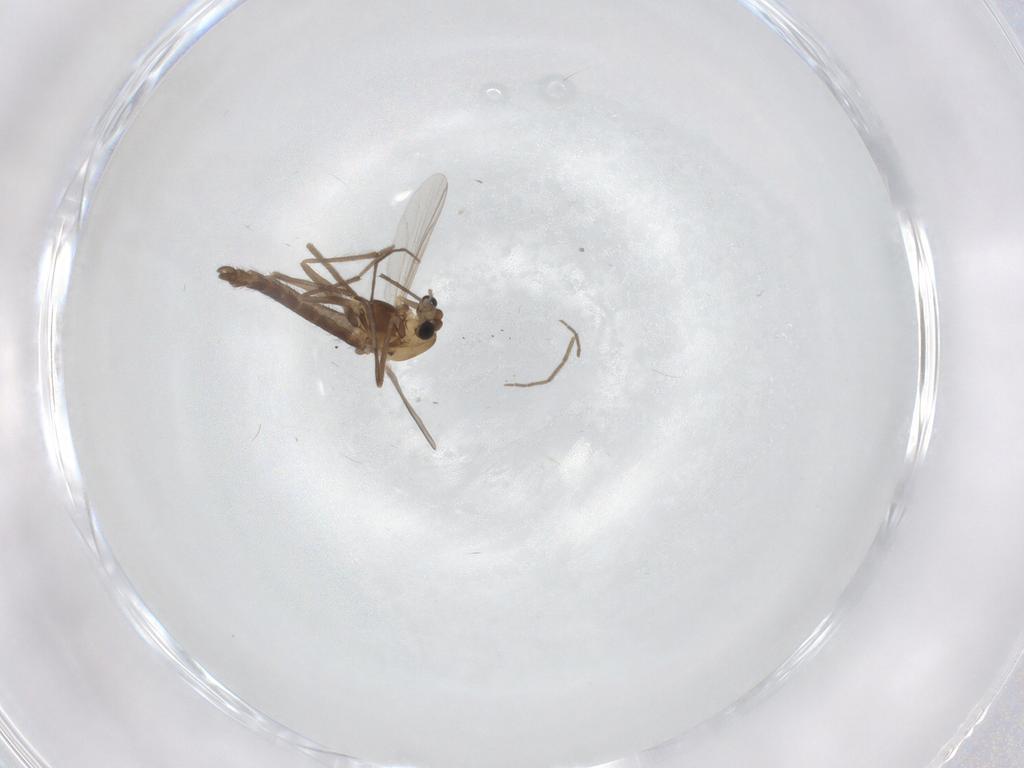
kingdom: Animalia
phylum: Arthropoda
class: Insecta
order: Diptera
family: Chironomidae
